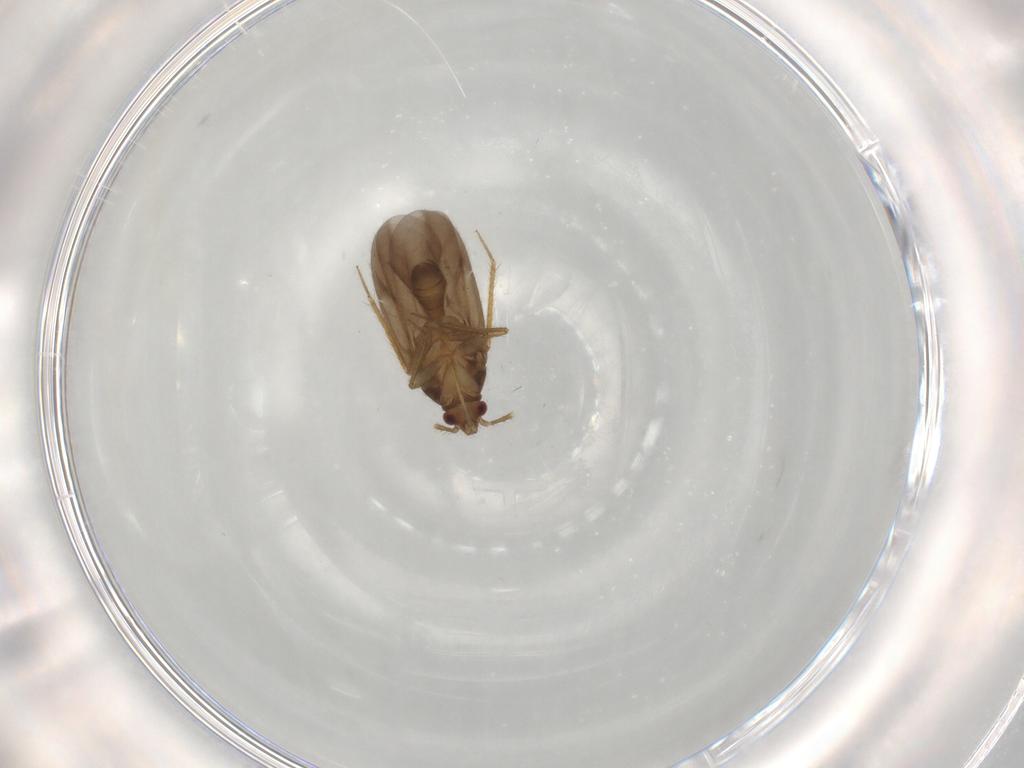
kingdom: Animalia
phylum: Arthropoda
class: Insecta
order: Hemiptera
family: Ceratocombidae
